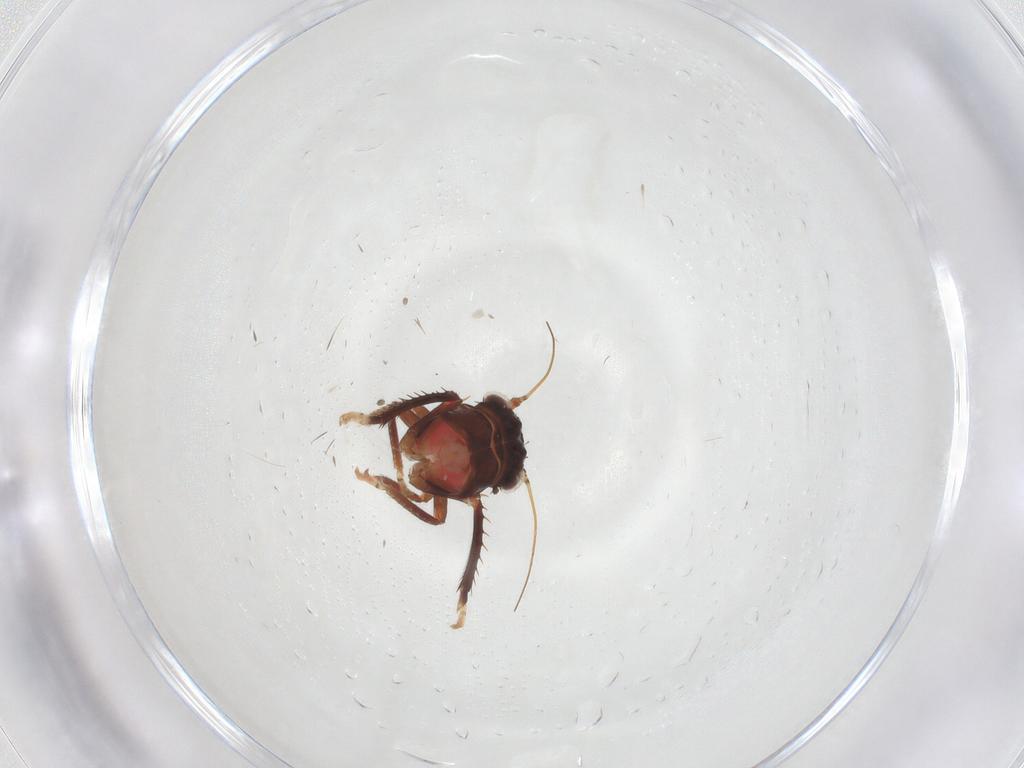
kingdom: Animalia
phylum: Arthropoda
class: Insecta
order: Hemiptera
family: Cicadellidae
